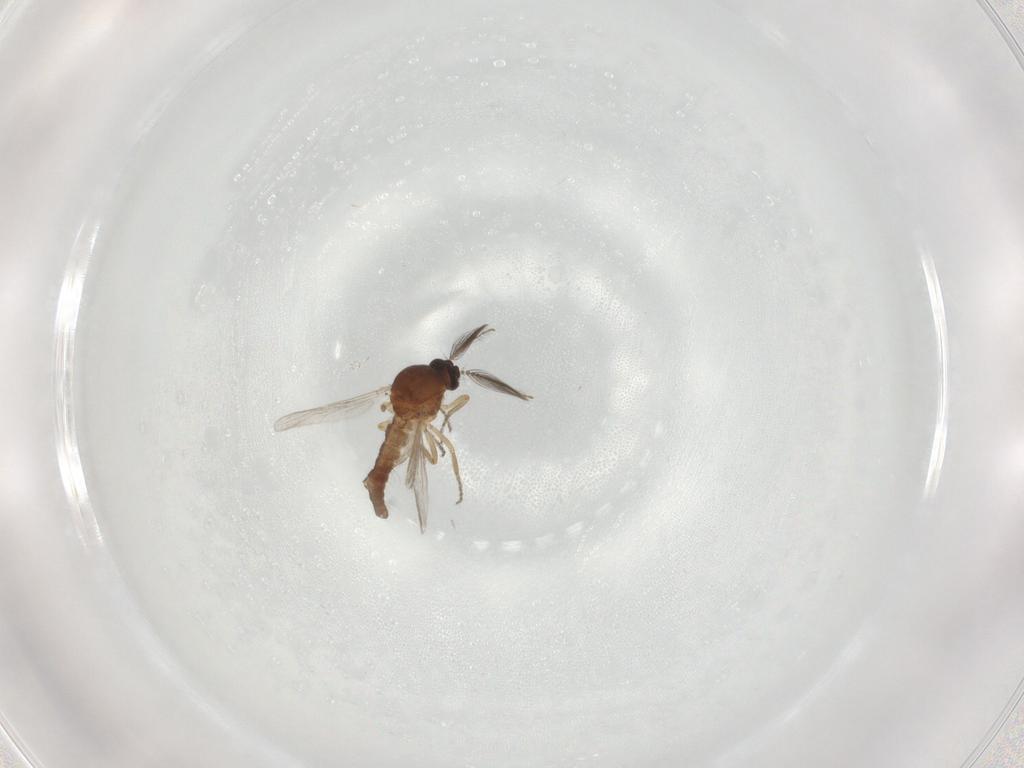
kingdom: Animalia
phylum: Arthropoda
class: Insecta
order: Diptera
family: Ceratopogonidae
